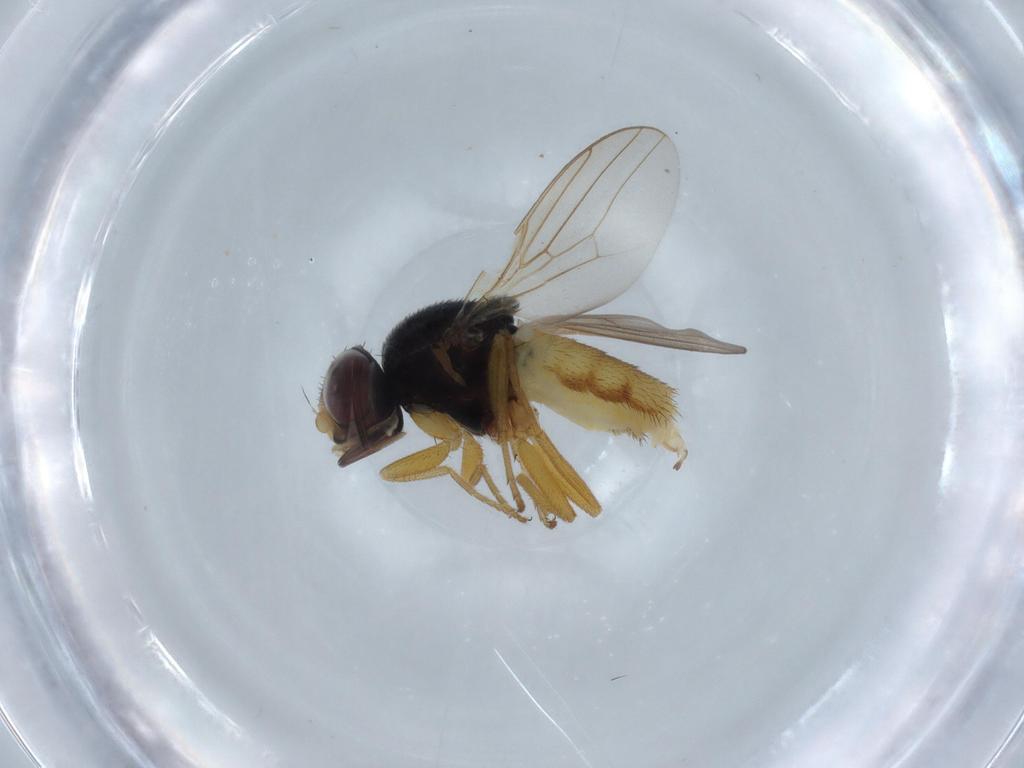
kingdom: Animalia
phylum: Arthropoda
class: Insecta
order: Diptera
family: Chloropidae
